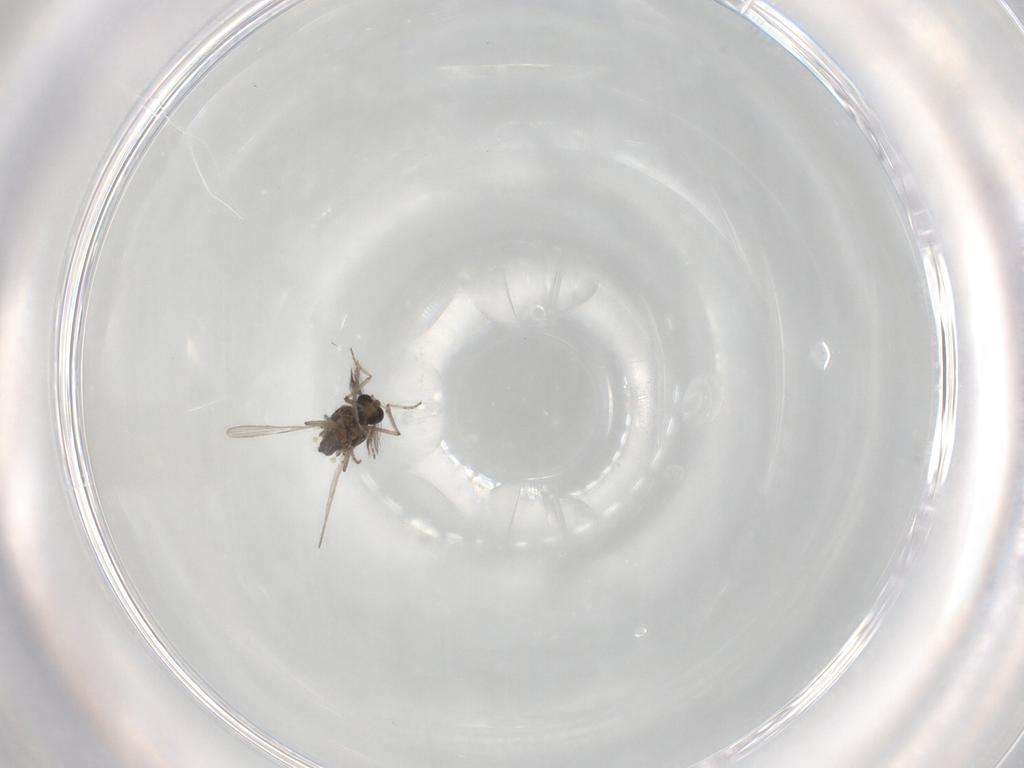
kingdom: Animalia
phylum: Arthropoda
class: Insecta
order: Diptera
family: Ceratopogonidae
